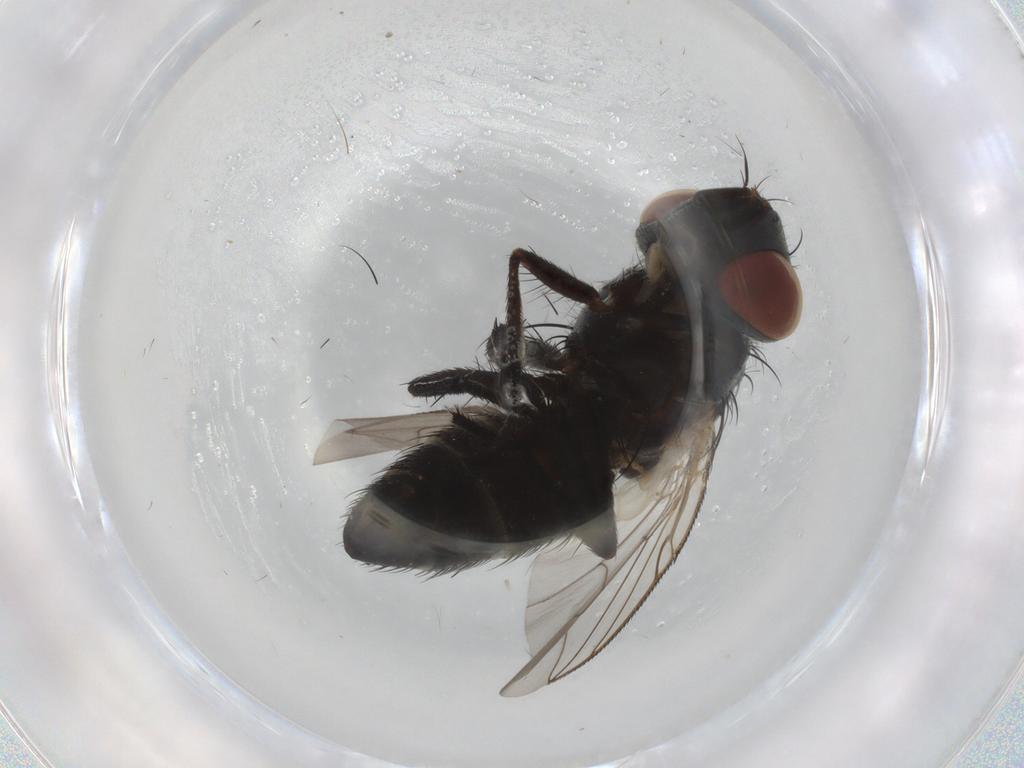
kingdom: Animalia
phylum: Arthropoda
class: Insecta
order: Diptera
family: Sarcophagidae
